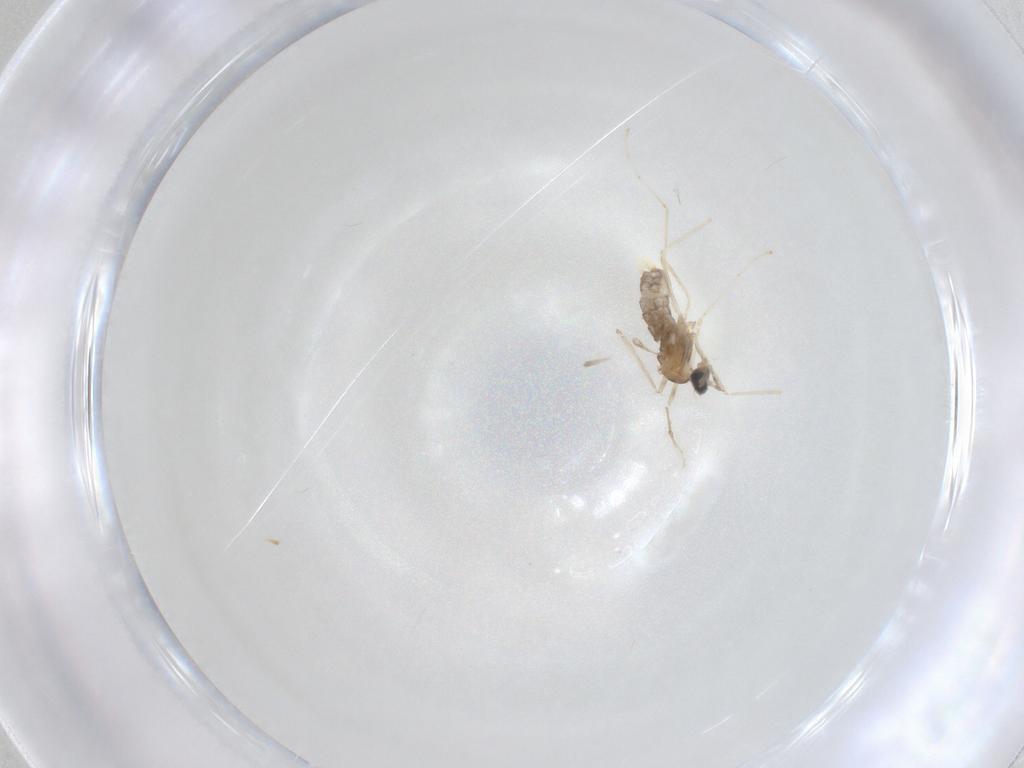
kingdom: Animalia
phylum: Arthropoda
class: Insecta
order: Diptera
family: Cecidomyiidae
